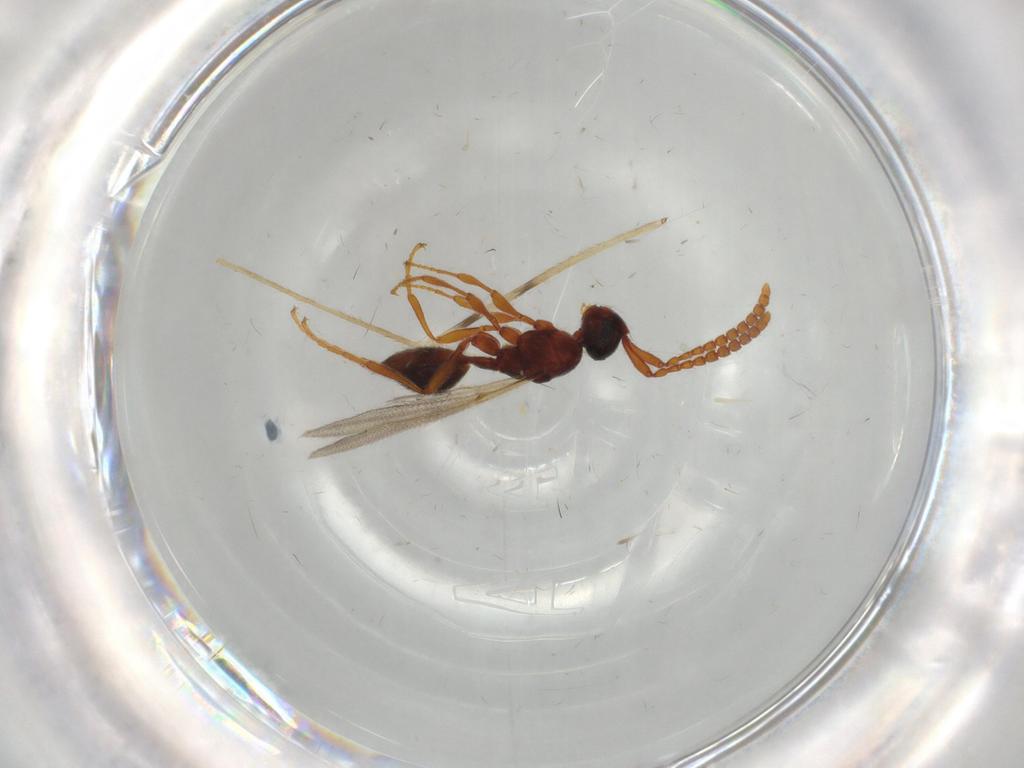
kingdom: Animalia
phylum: Arthropoda
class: Insecta
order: Hymenoptera
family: Diapriidae
